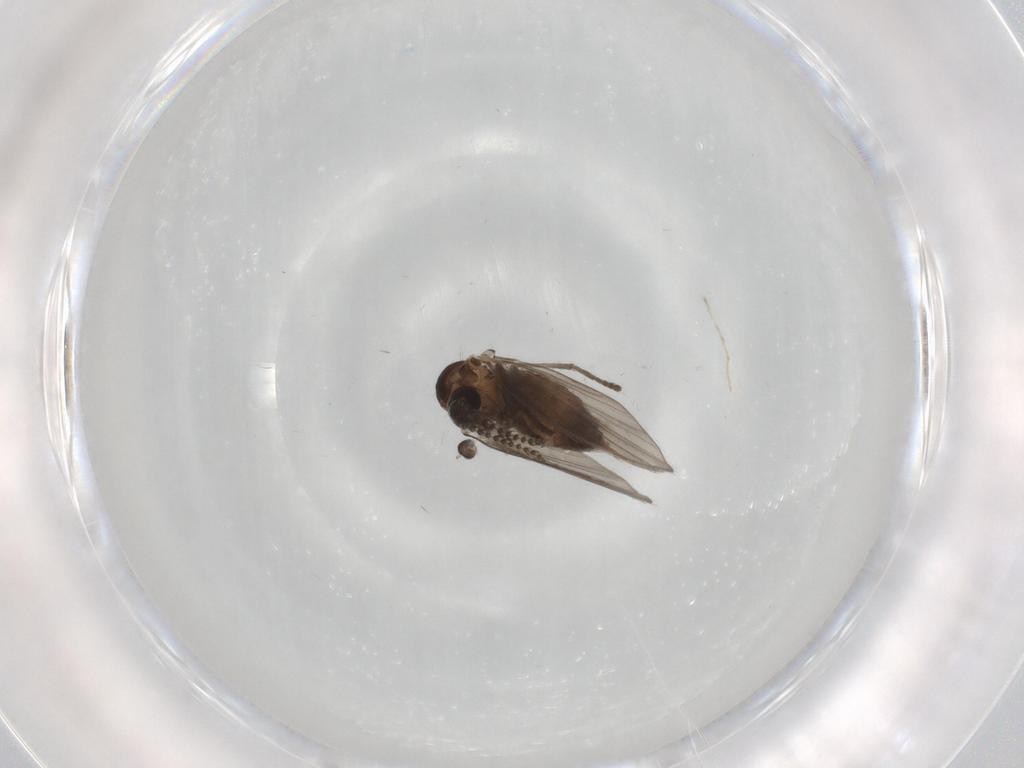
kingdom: Animalia
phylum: Arthropoda
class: Insecta
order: Diptera
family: Psychodidae
